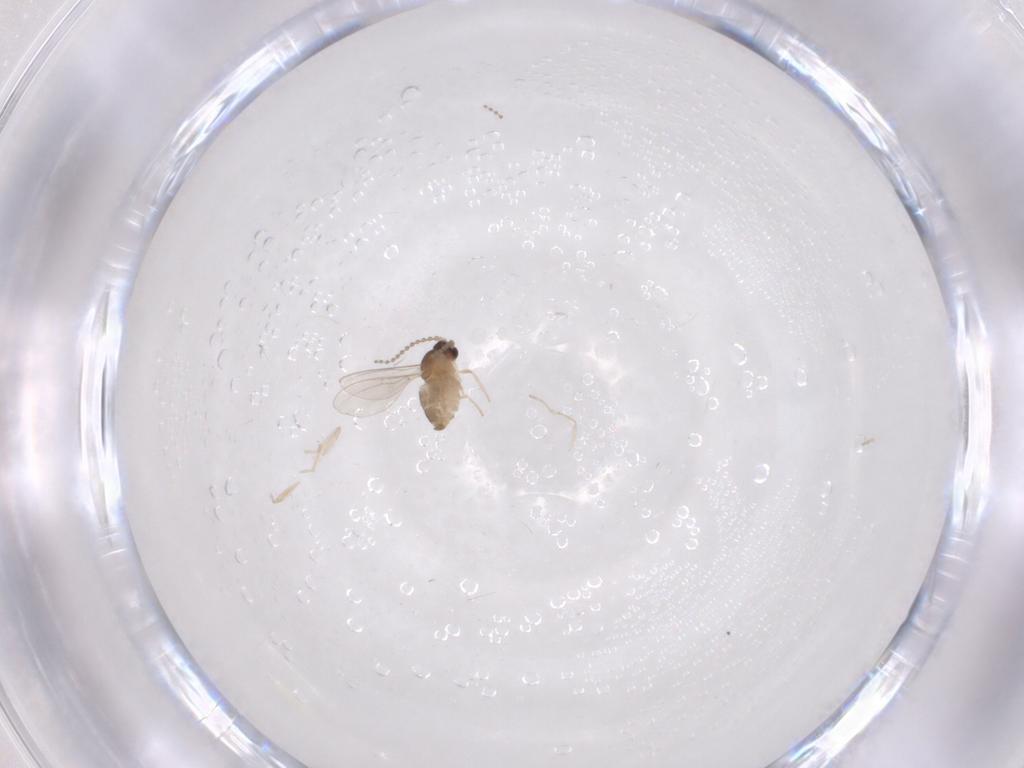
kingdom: Animalia
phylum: Arthropoda
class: Insecta
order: Diptera
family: Cecidomyiidae
